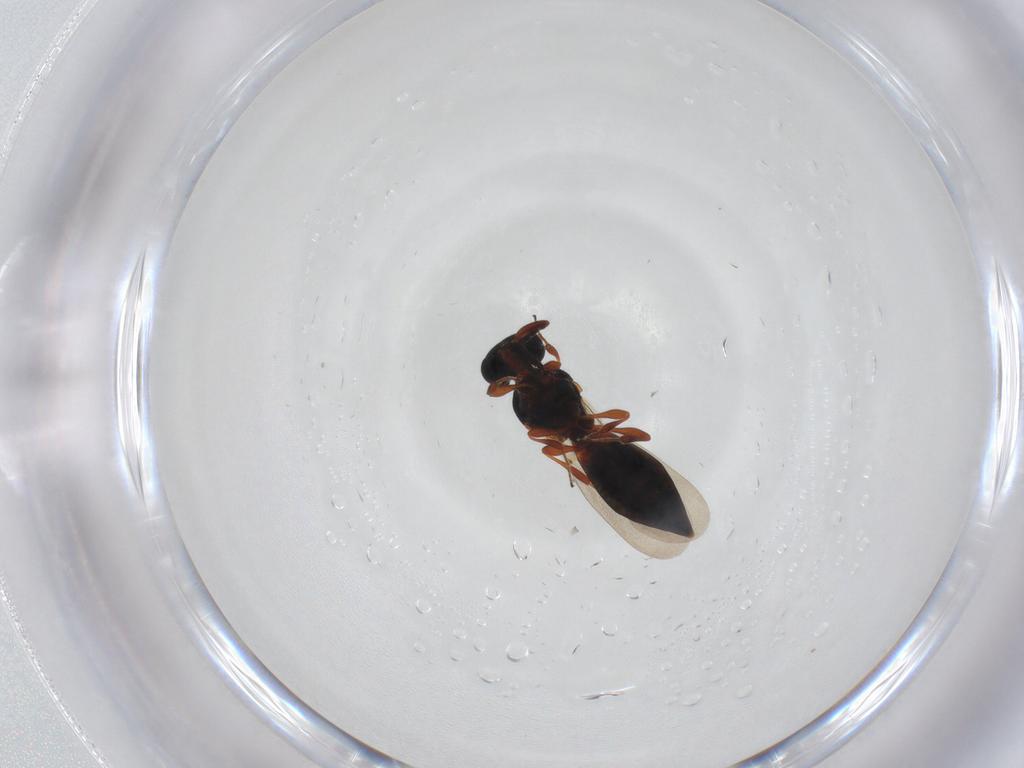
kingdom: Animalia
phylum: Arthropoda
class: Insecta
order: Hymenoptera
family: Platygastridae
